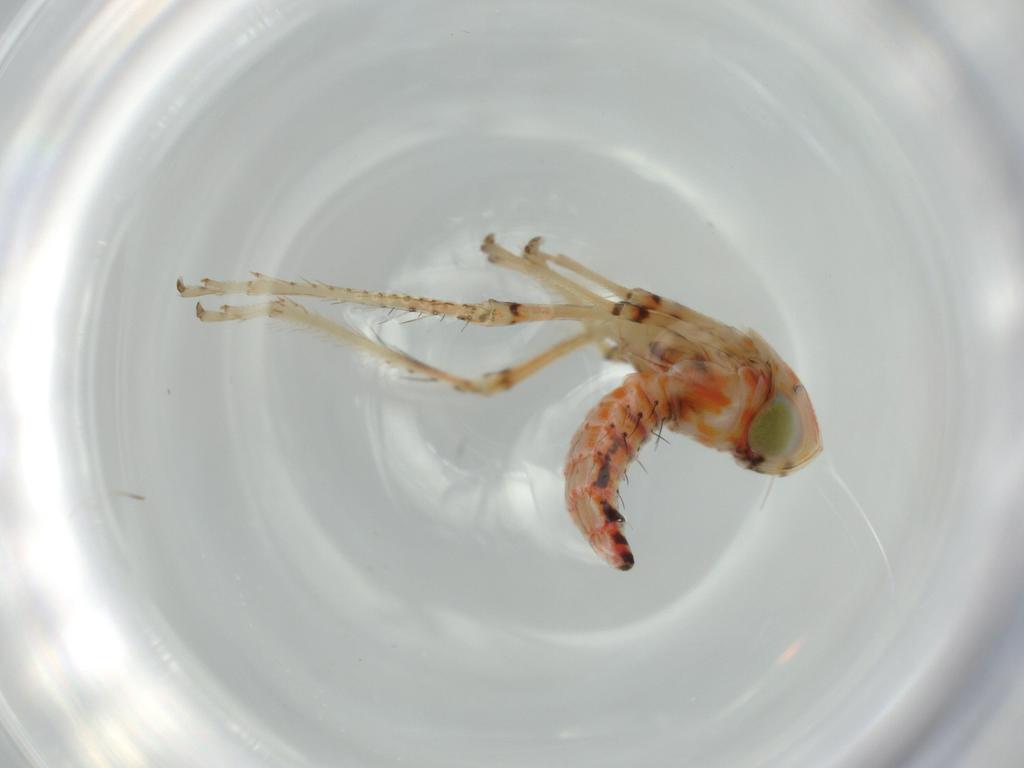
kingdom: Animalia
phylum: Arthropoda
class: Insecta
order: Hemiptera
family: Cicadellidae
